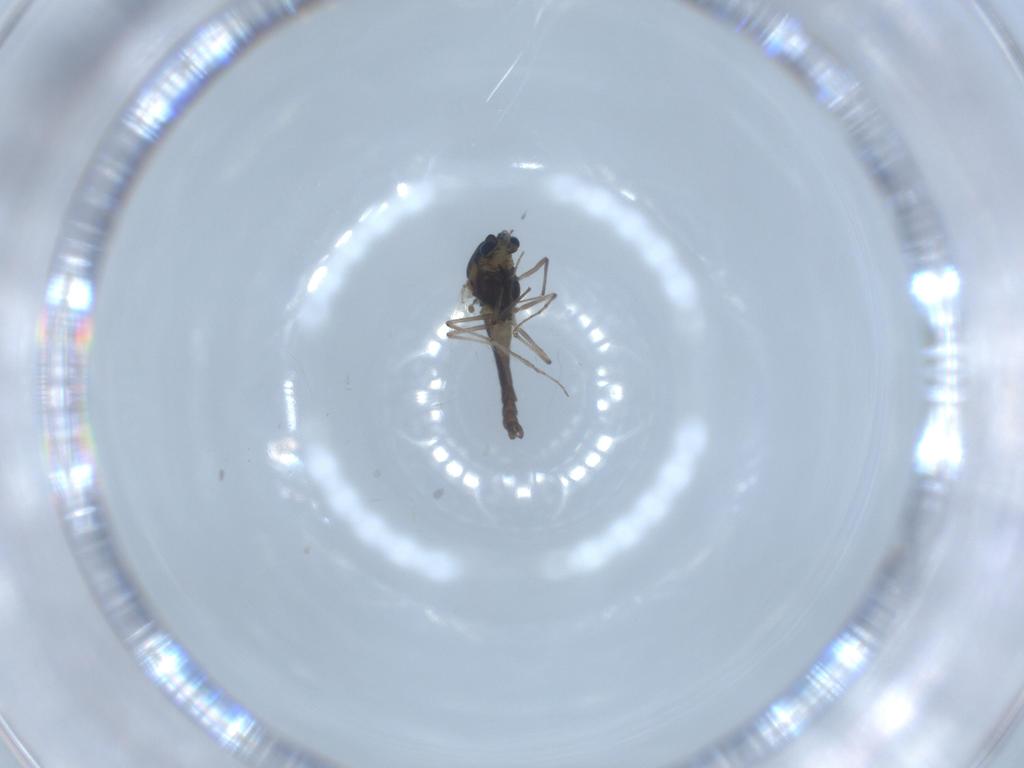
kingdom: Animalia
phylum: Arthropoda
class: Insecta
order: Diptera
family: Chironomidae
